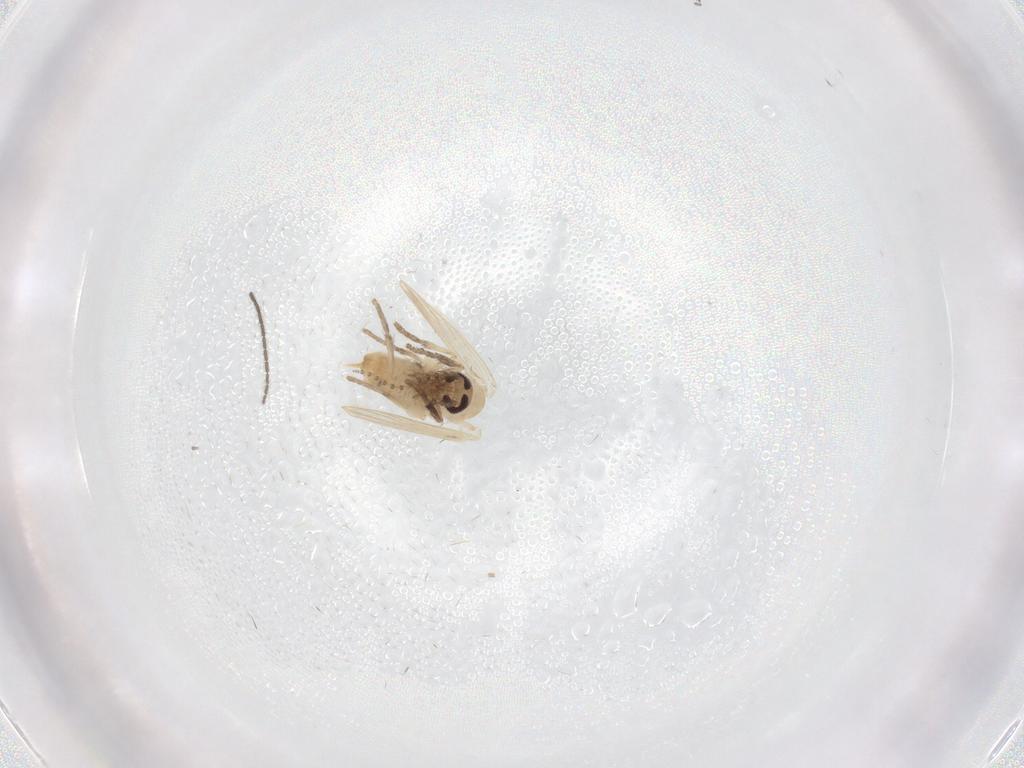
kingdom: Animalia
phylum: Arthropoda
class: Insecta
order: Diptera
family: Psychodidae
